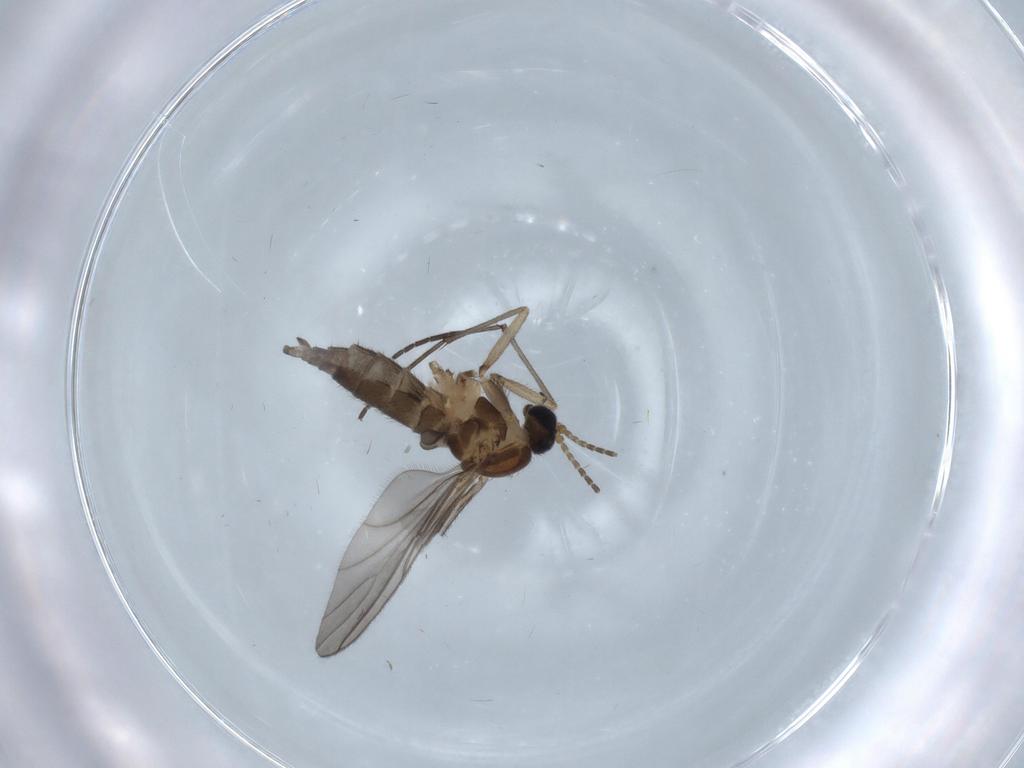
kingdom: Animalia
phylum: Arthropoda
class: Insecta
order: Diptera
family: Sciaridae
